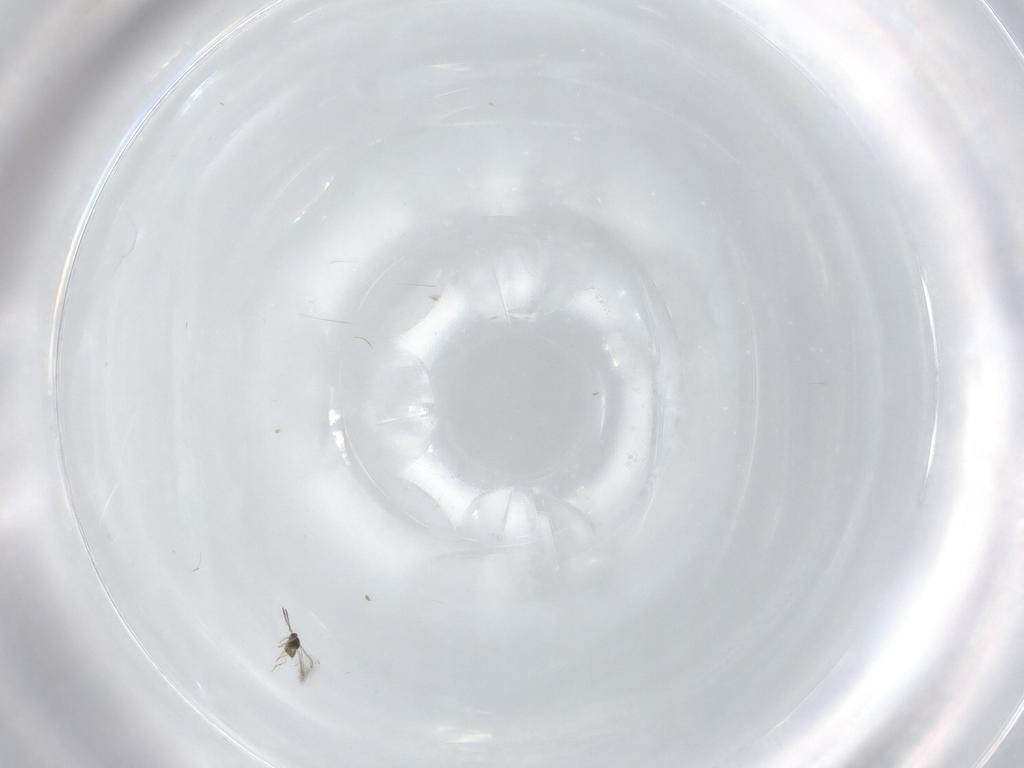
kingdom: Animalia
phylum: Arthropoda
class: Insecta
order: Hymenoptera
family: Mymaridae
